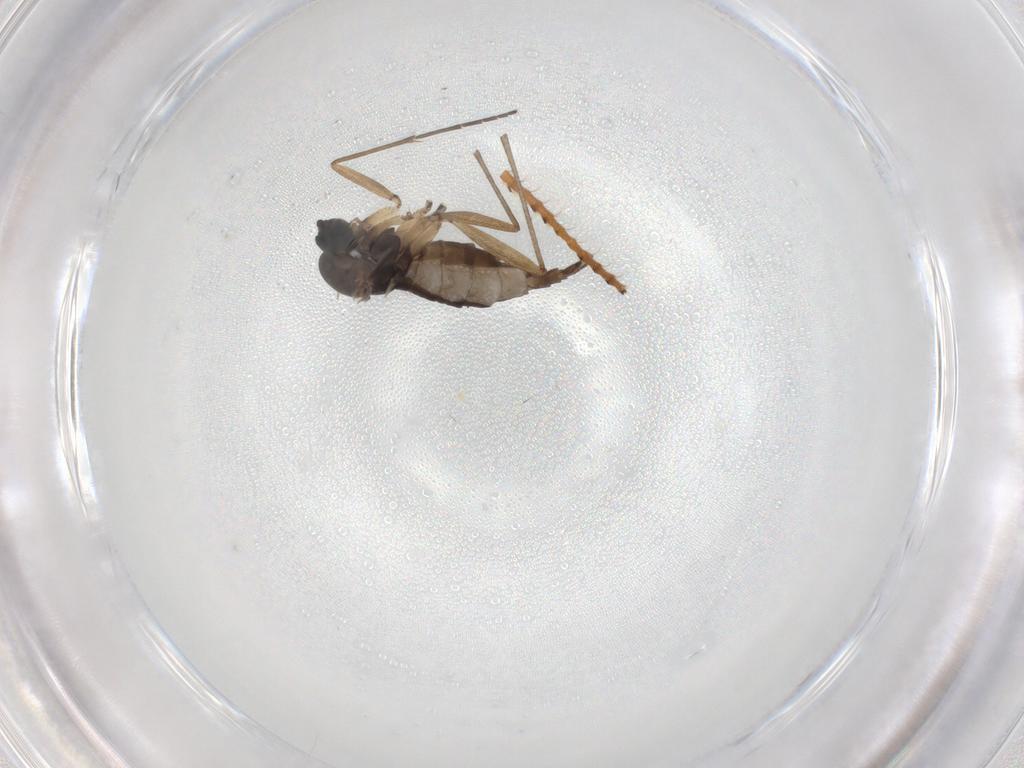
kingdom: Animalia
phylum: Arthropoda
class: Insecta
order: Diptera
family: Sciaridae
